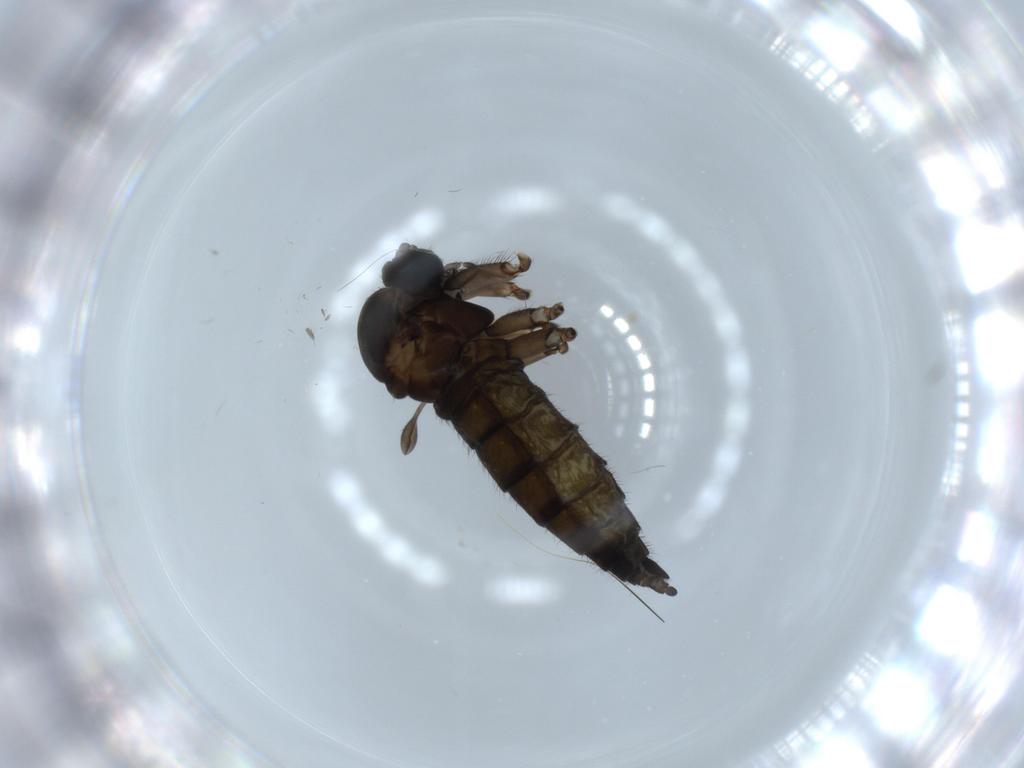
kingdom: Animalia
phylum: Arthropoda
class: Insecta
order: Diptera
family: Sciaridae
